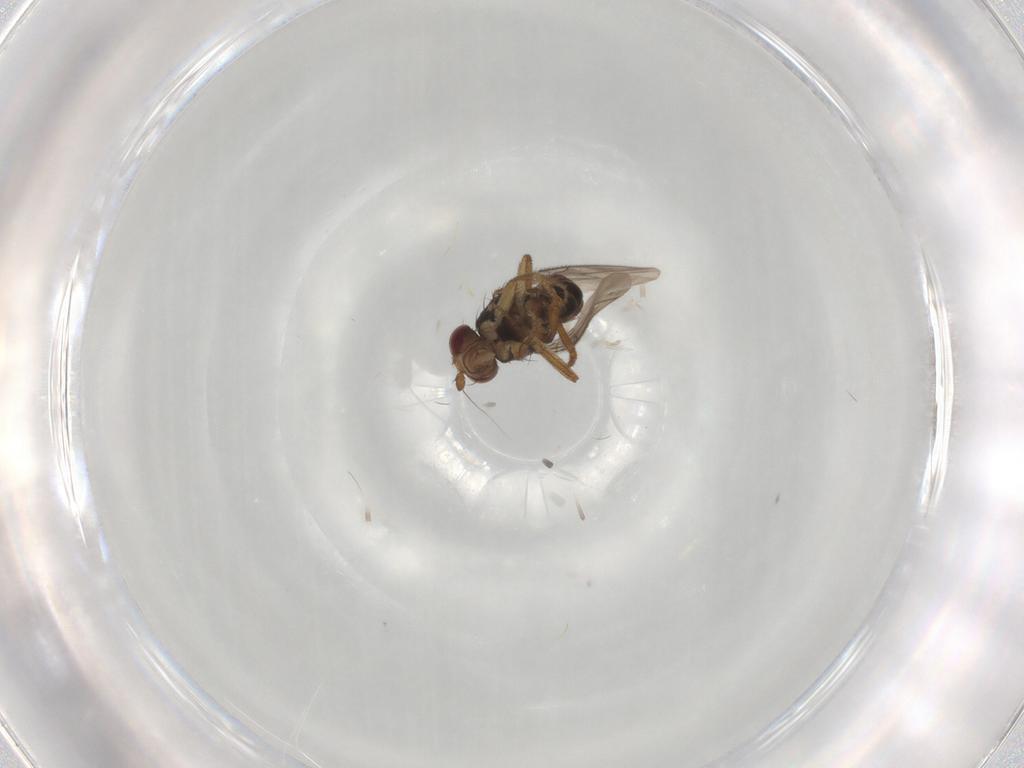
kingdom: Animalia
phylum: Arthropoda
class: Insecta
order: Diptera
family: Sphaeroceridae
